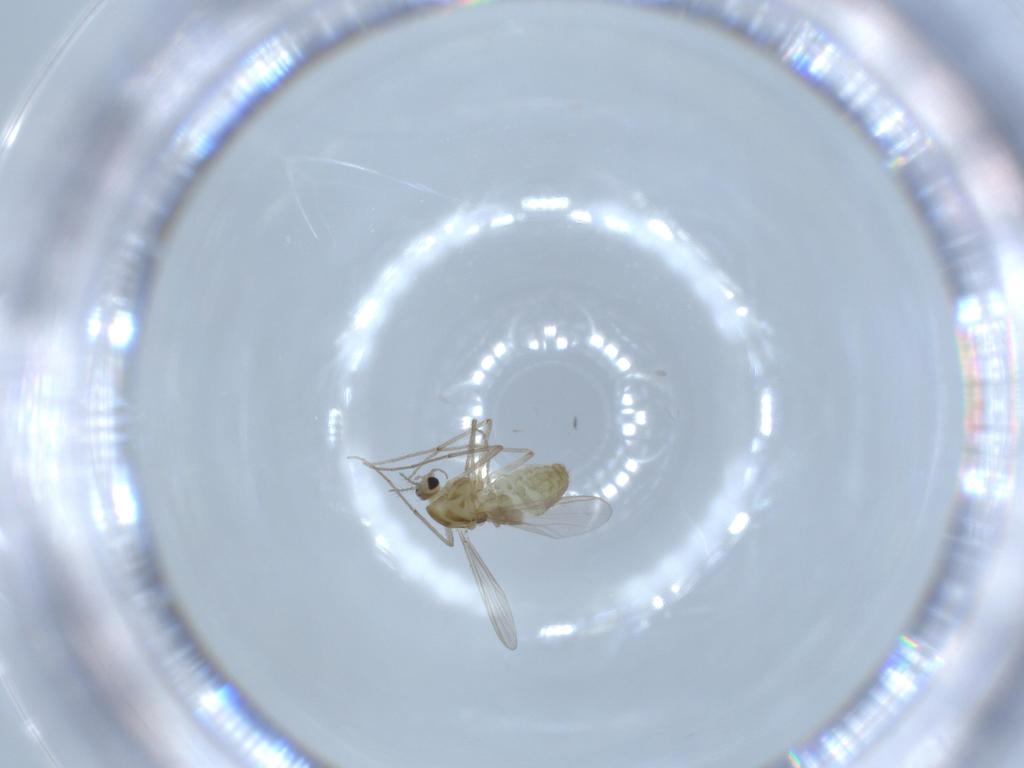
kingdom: Animalia
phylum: Arthropoda
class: Insecta
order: Diptera
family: Chironomidae
